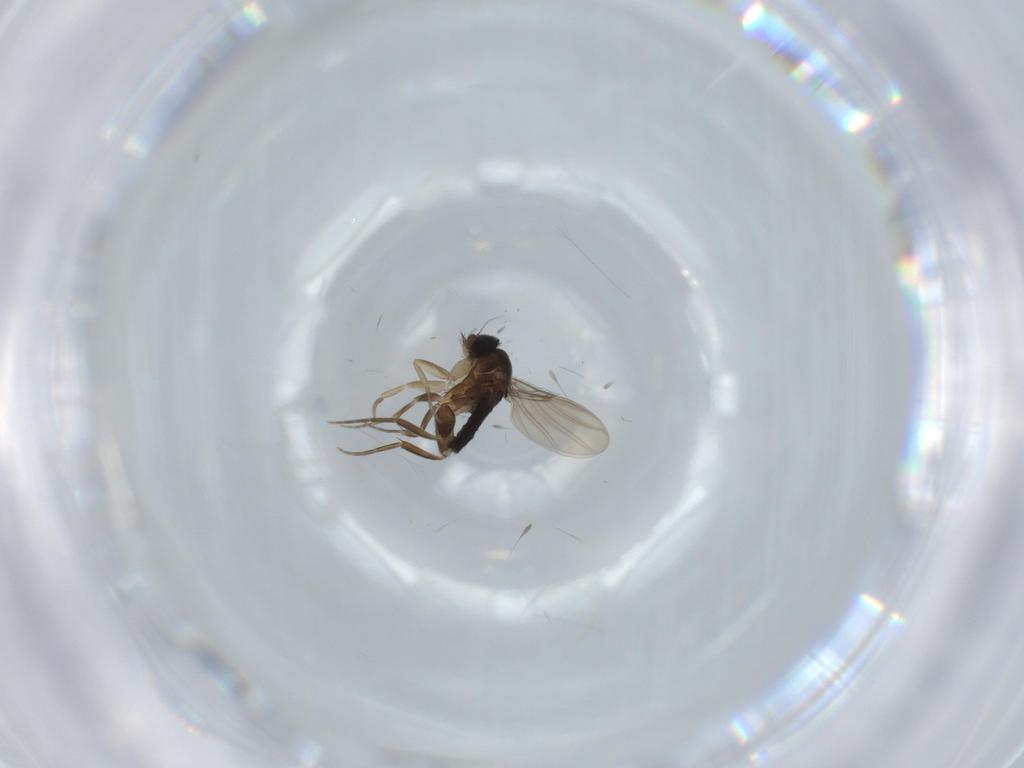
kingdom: Animalia
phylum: Arthropoda
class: Insecta
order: Diptera
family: Phoridae
